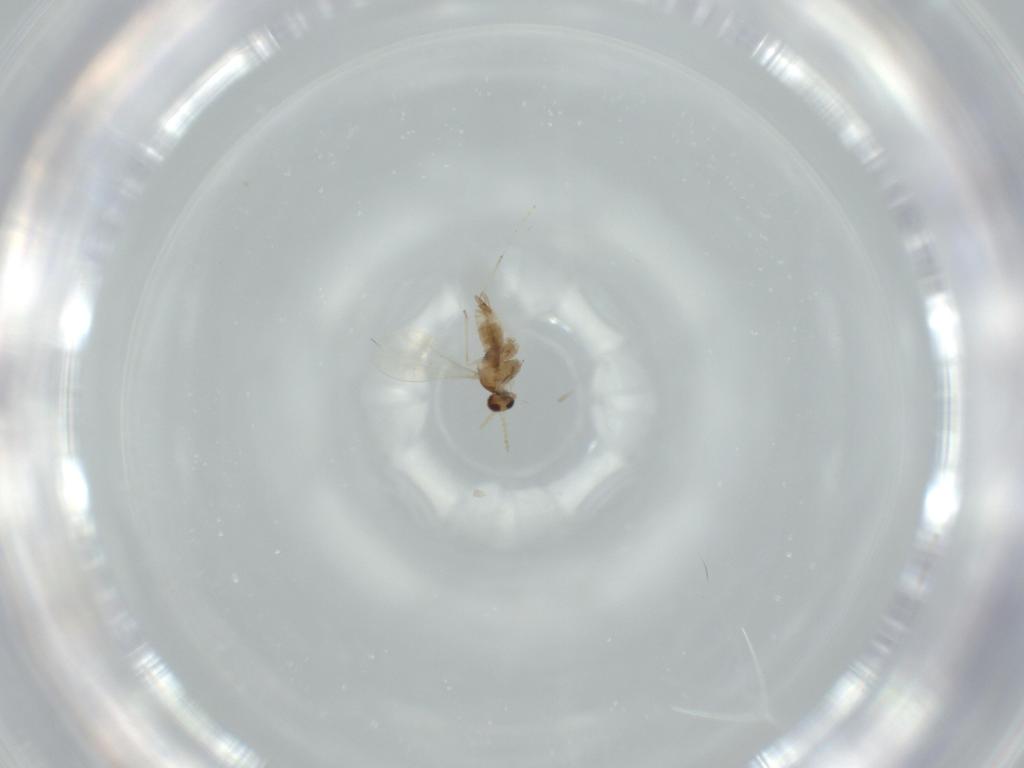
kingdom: Animalia
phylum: Arthropoda
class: Insecta
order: Diptera
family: Cecidomyiidae
